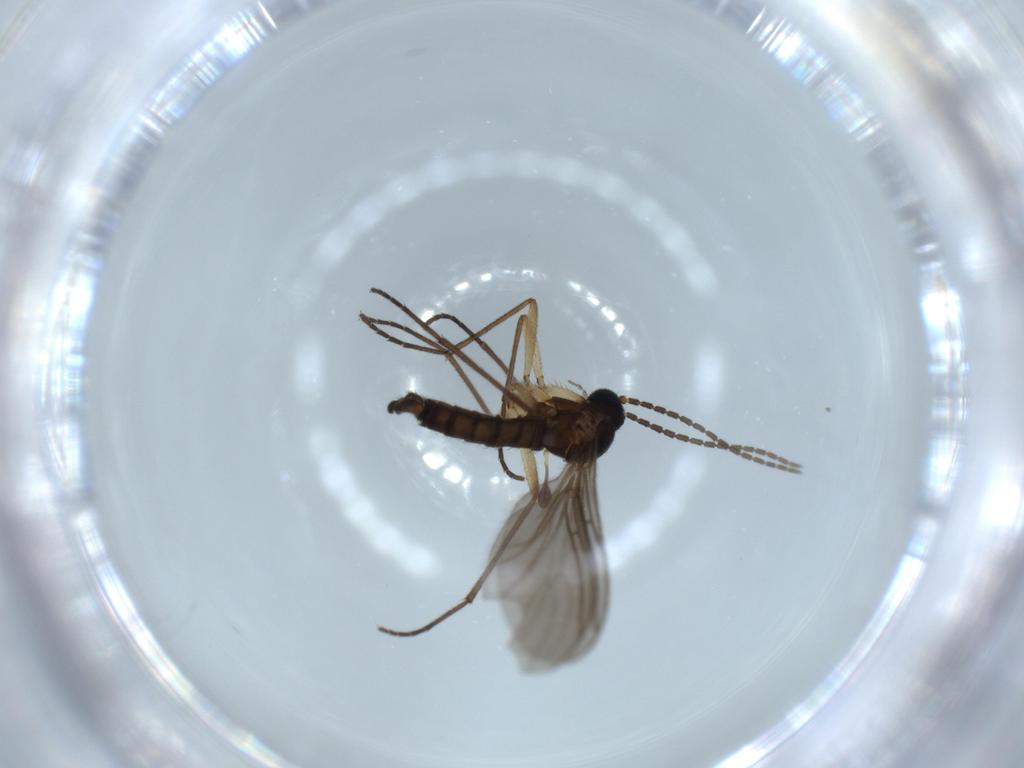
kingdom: Animalia
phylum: Arthropoda
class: Insecta
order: Diptera
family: Sciaridae
